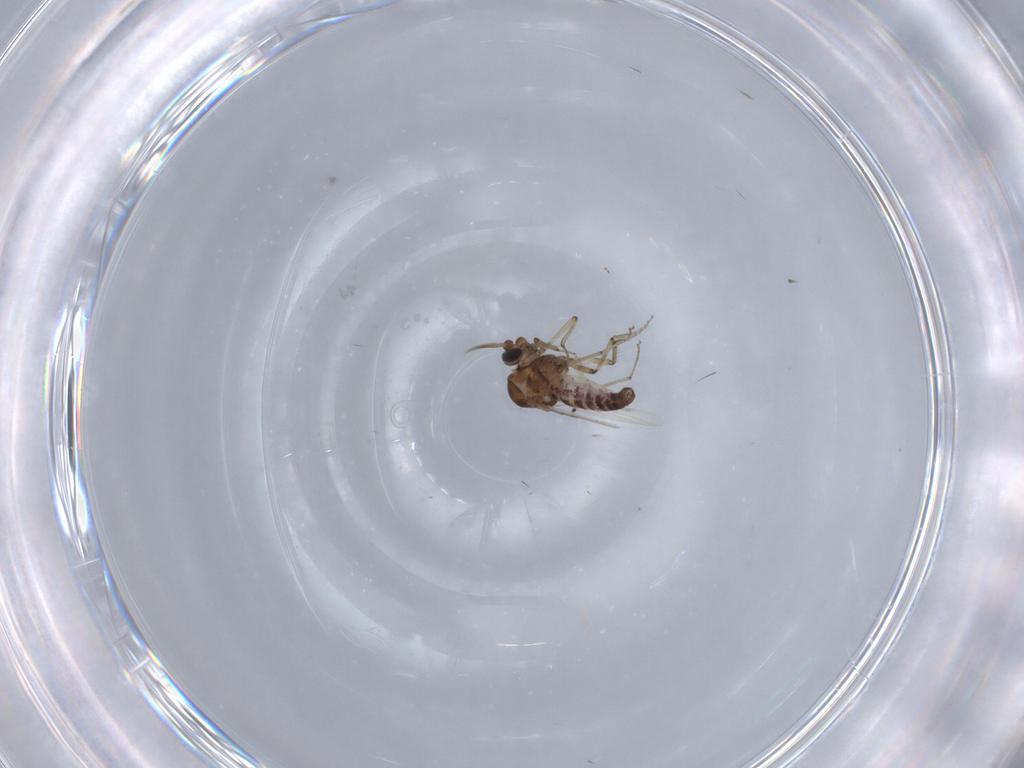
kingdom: Animalia
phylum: Arthropoda
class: Insecta
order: Diptera
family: Ceratopogonidae
